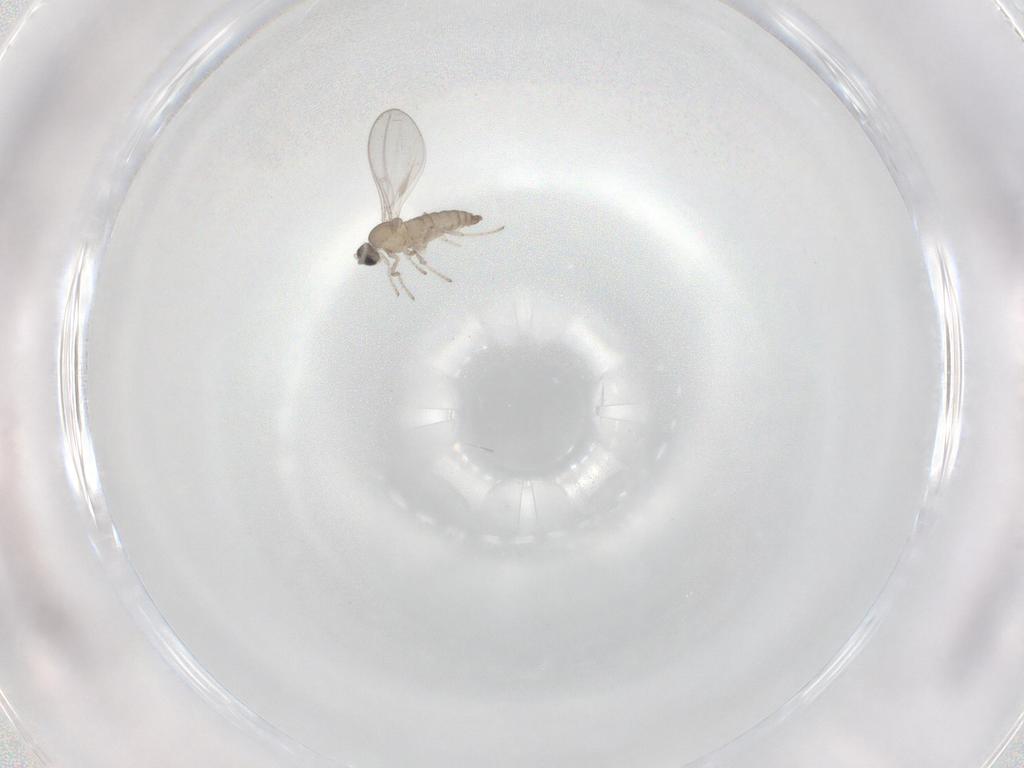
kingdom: Animalia
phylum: Arthropoda
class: Insecta
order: Diptera
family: Cecidomyiidae
